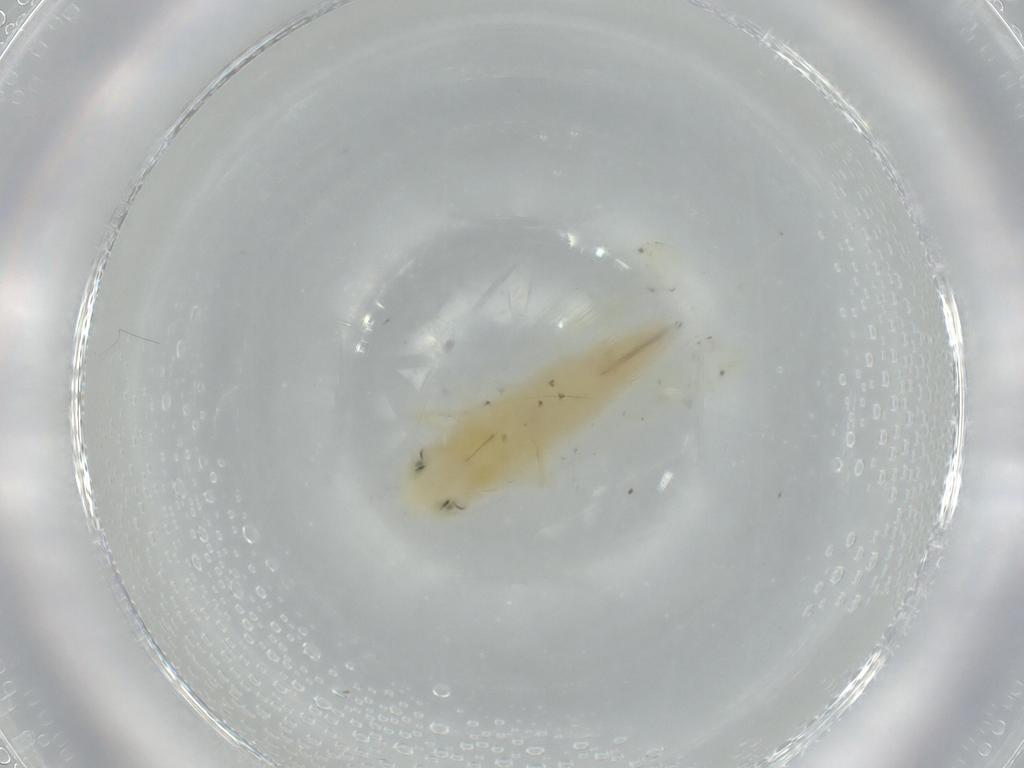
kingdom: Animalia
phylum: Arthropoda
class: Insecta
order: Hemiptera
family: Cicadellidae
